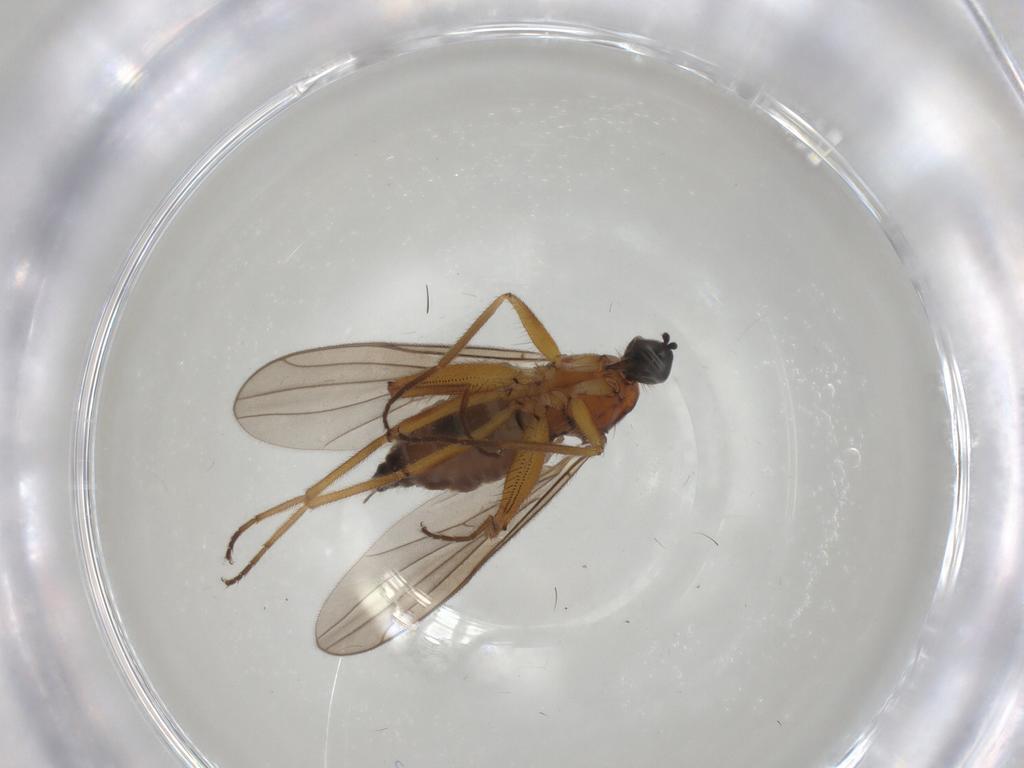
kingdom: Animalia
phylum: Arthropoda
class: Insecta
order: Diptera
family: Hybotidae
